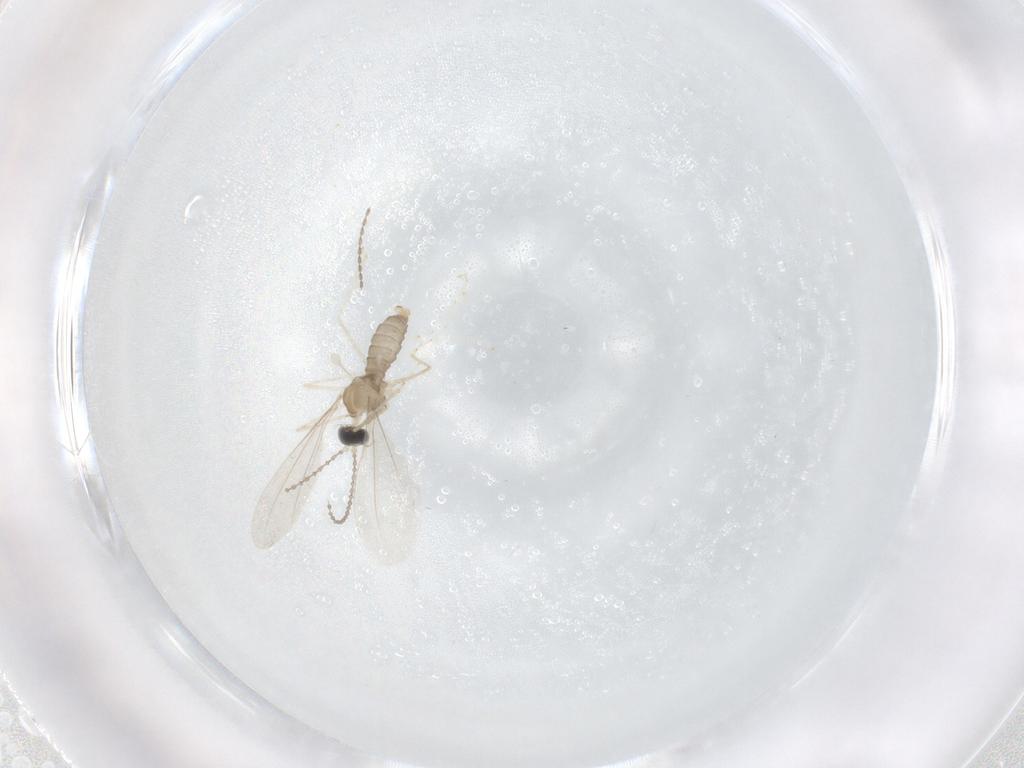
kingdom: Animalia
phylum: Arthropoda
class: Insecta
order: Diptera
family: Cecidomyiidae
